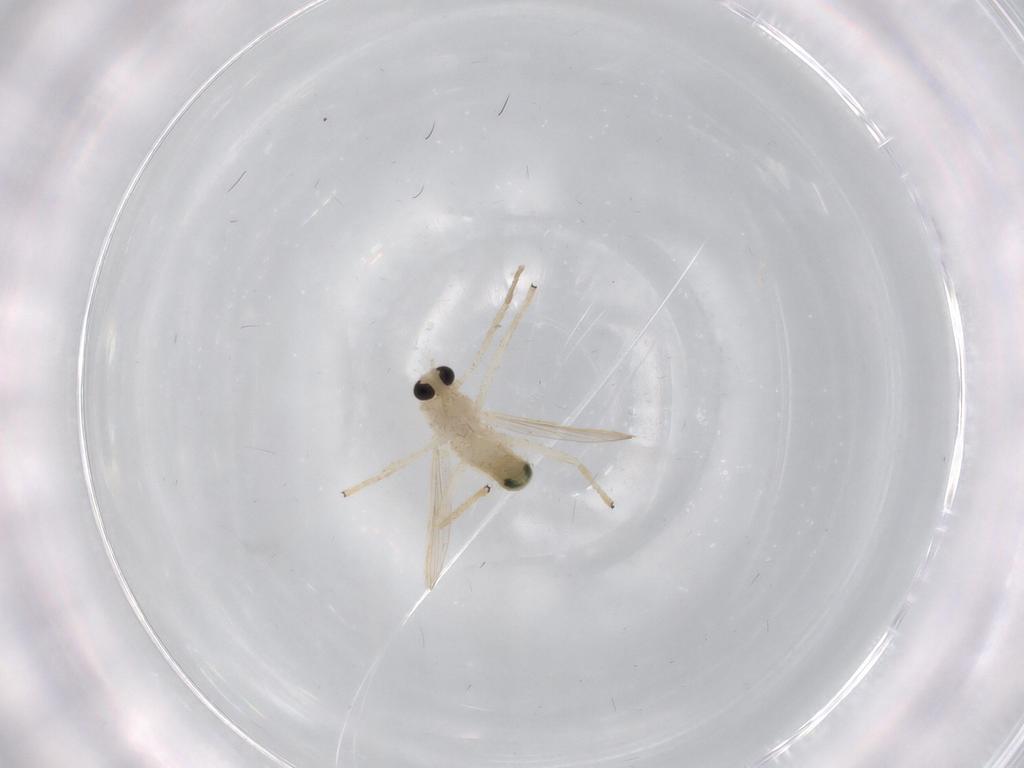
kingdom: Animalia
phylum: Arthropoda
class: Insecta
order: Diptera
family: Chironomidae
